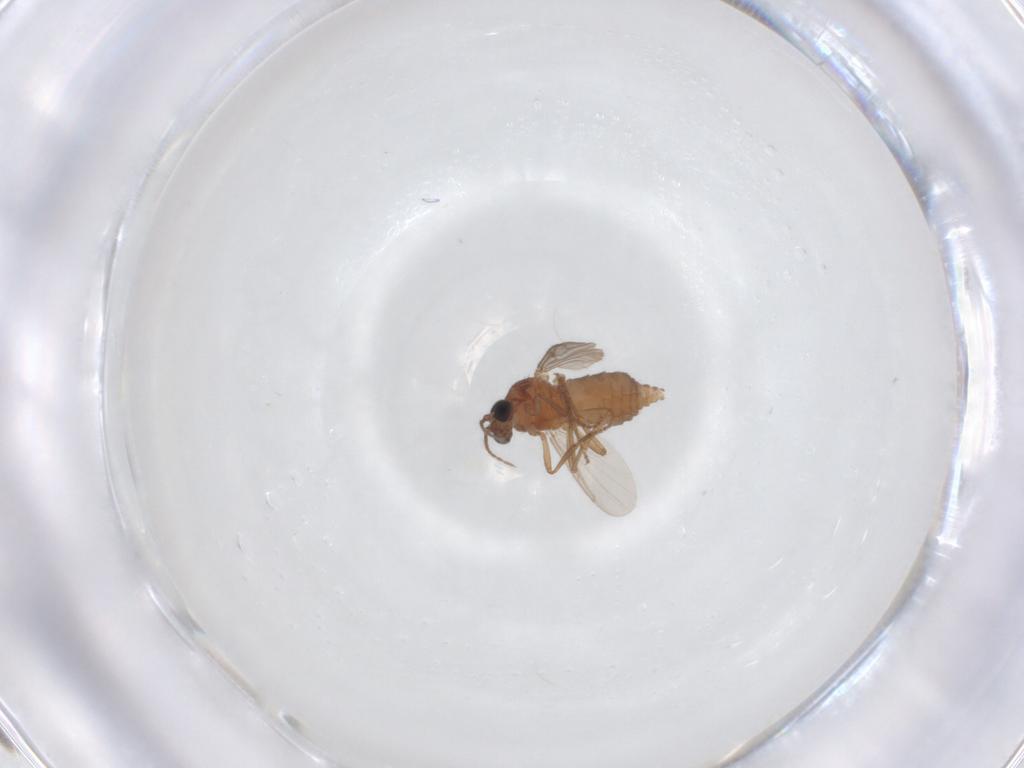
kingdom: Animalia
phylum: Arthropoda
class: Insecta
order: Diptera
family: Ceratopogonidae
